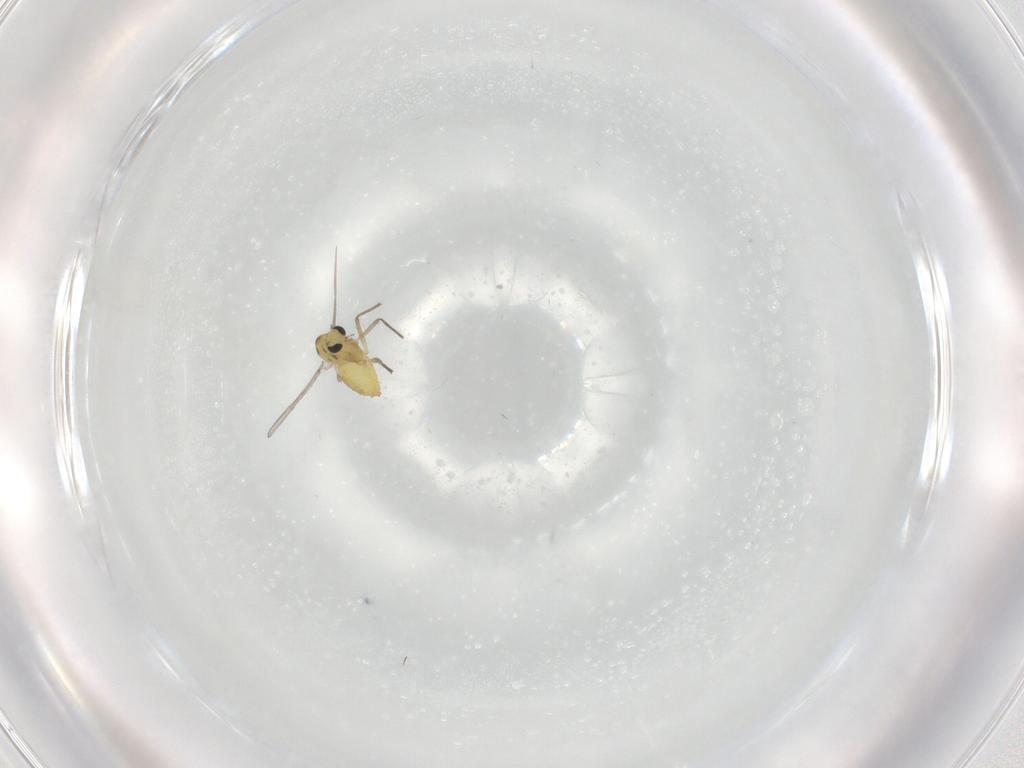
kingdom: Animalia
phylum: Arthropoda
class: Insecta
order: Diptera
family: Chironomidae
